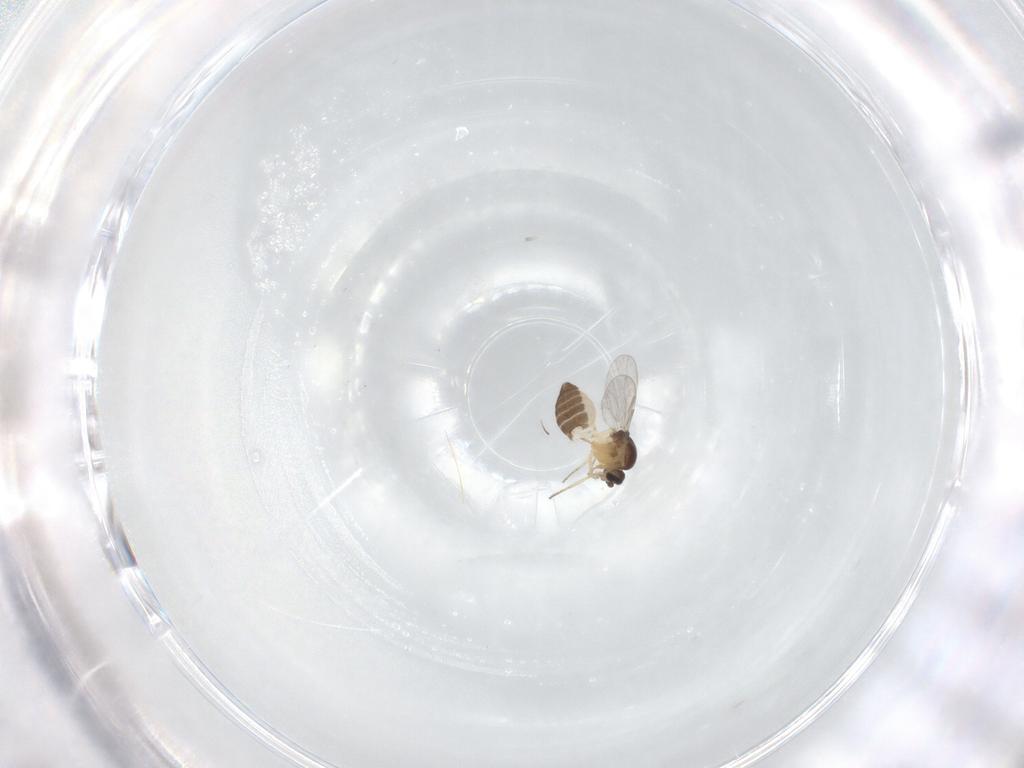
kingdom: Animalia
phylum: Arthropoda
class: Insecta
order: Diptera
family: Ceratopogonidae
